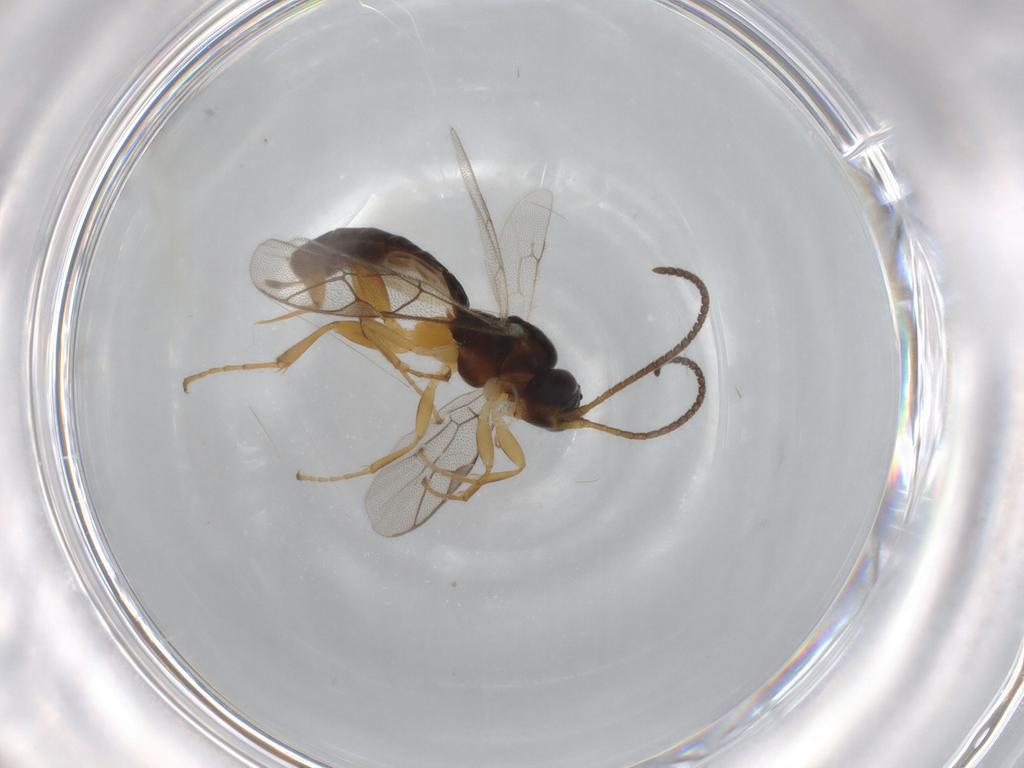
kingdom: Animalia
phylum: Arthropoda
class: Insecta
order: Hymenoptera
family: Ichneumonidae
